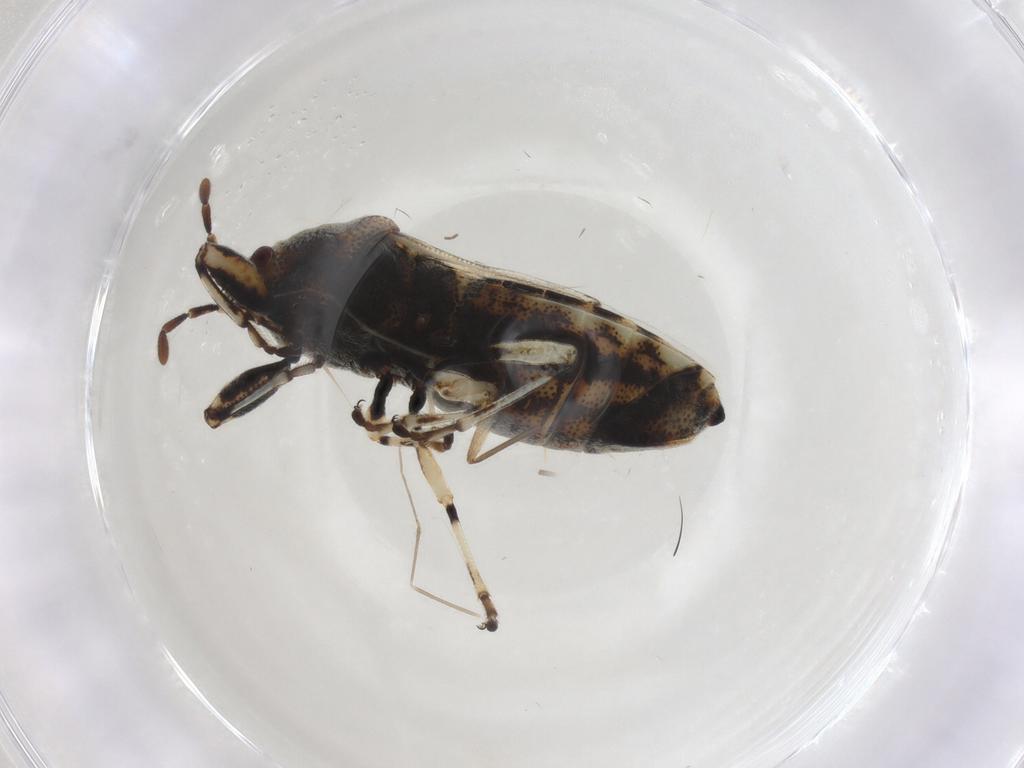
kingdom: Animalia
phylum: Arthropoda
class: Insecta
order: Hemiptera
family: Pachygronthidae
